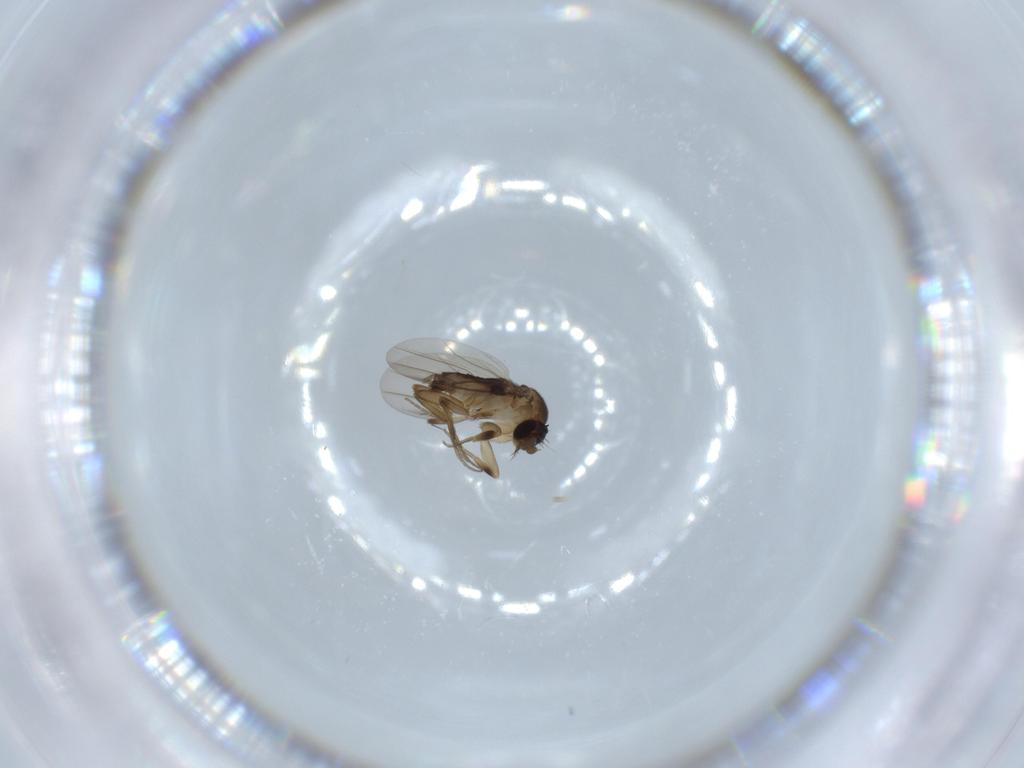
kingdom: Animalia
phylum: Arthropoda
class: Insecta
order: Diptera
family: Phoridae
